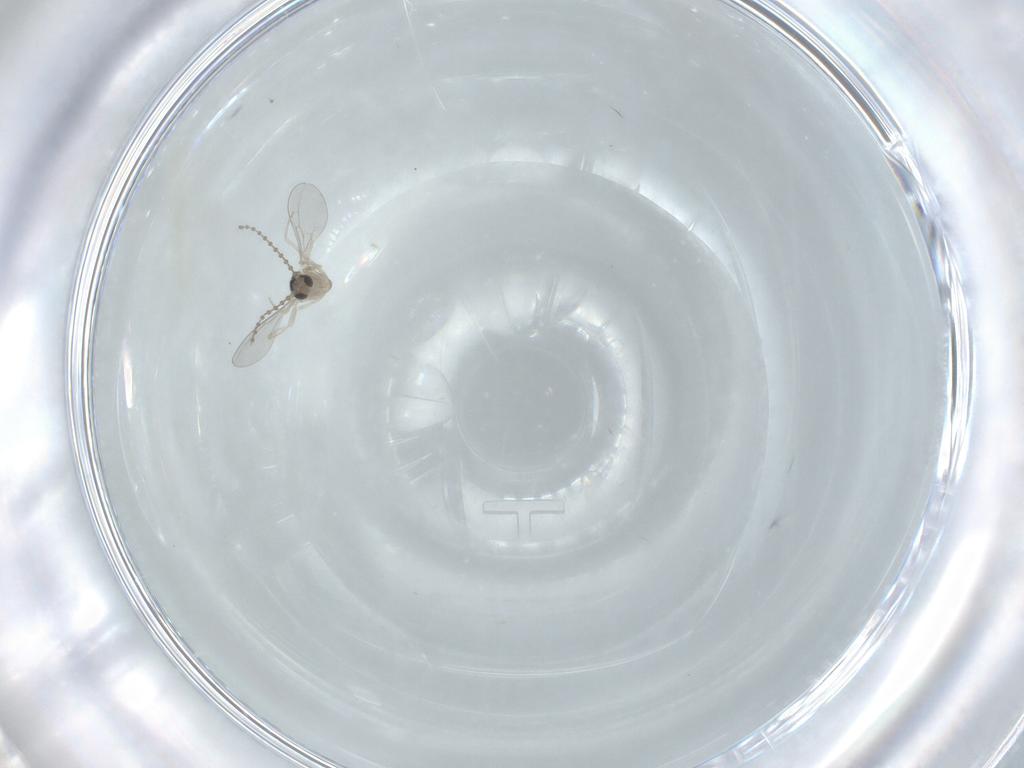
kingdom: Animalia
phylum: Arthropoda
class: Insecta
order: Diptera
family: Cecidomyiidae
